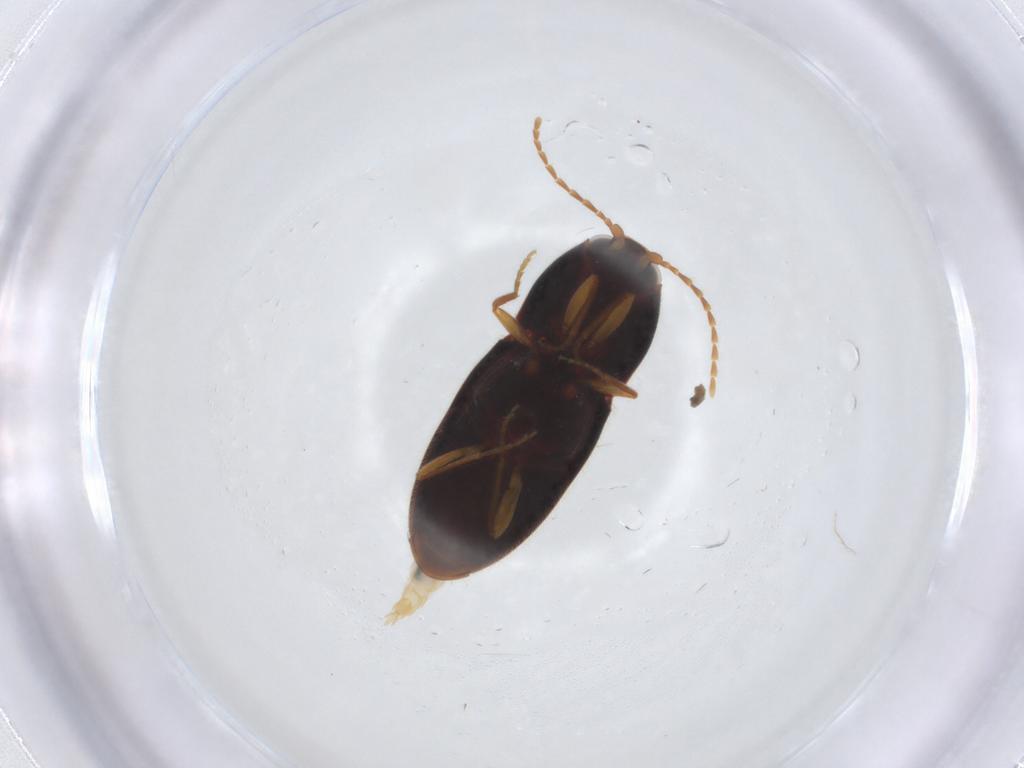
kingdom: Animalia
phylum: Arthropoda
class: Insecta
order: Coleoptera
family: Elateridae
